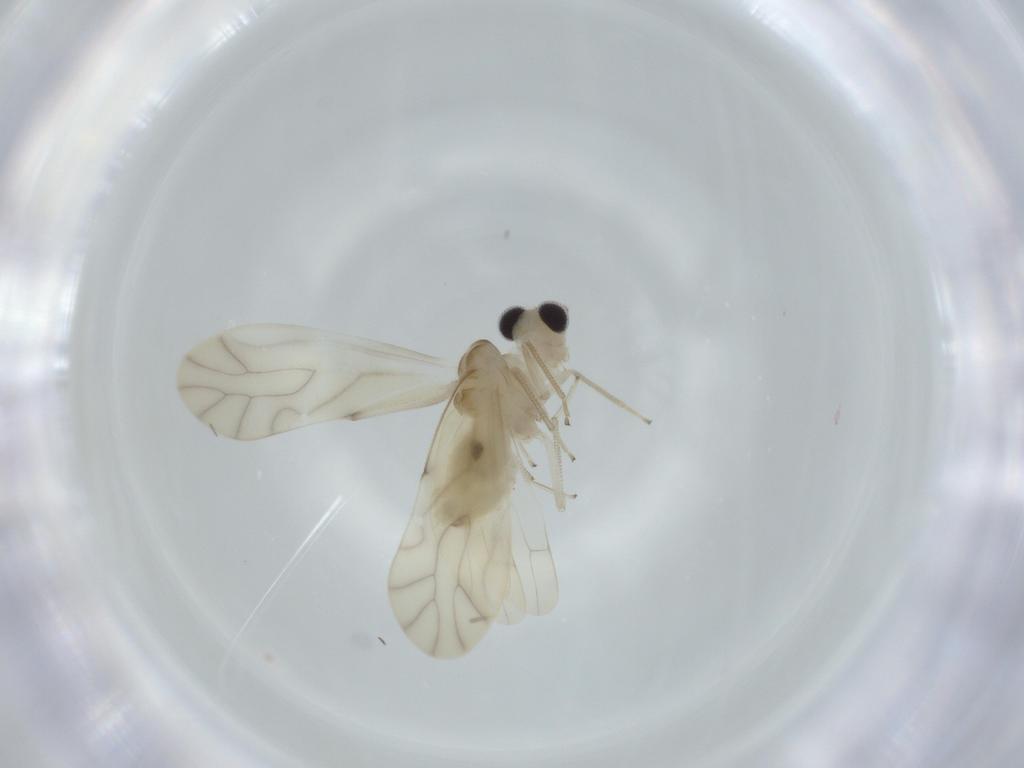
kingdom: Animalia
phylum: Arthropoda
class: Insecta
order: Psocodea
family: Caeciliusidae
